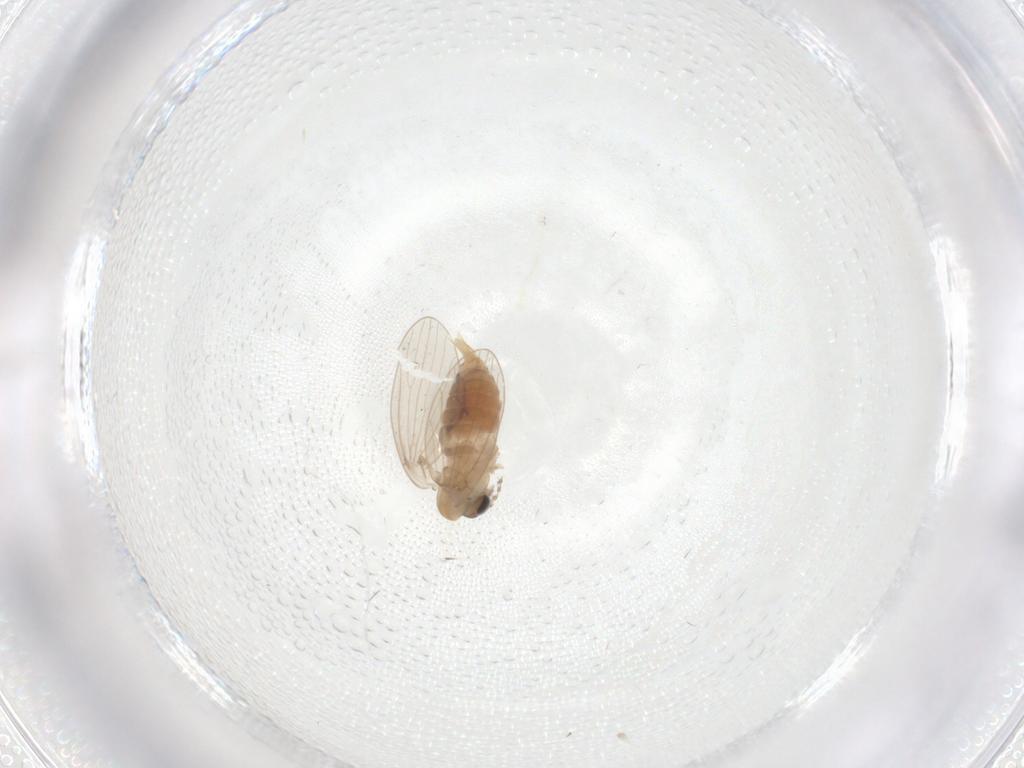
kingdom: Animalia
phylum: Arthropoda
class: Insecta
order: Diptera
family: Psychodidae
